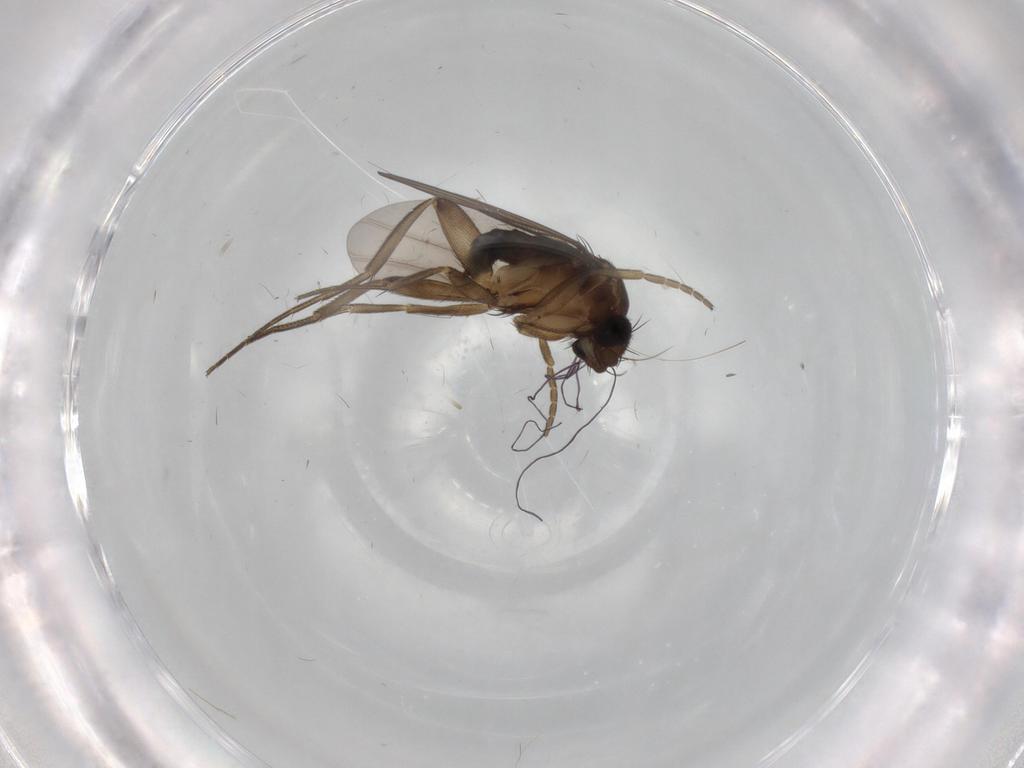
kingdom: Animalia
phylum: Arthropoda
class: Insecta
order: Diptera
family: Phoridae
